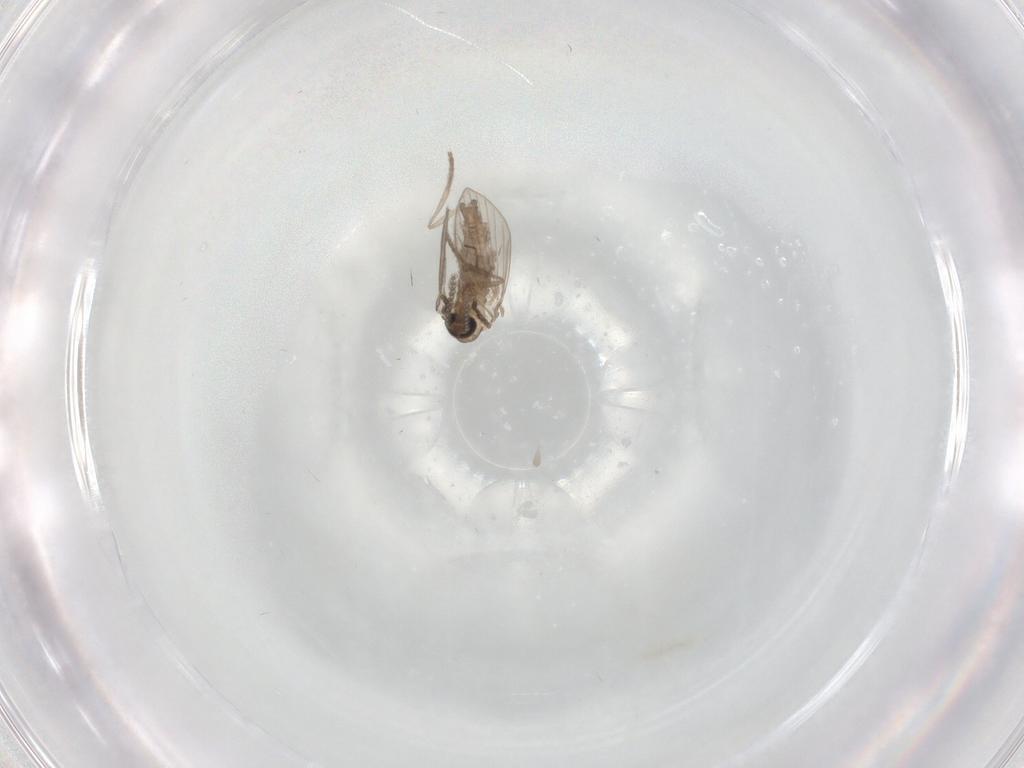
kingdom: Animalia
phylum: Arthropoda
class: Insecta
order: Diptera
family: Psychodidae
